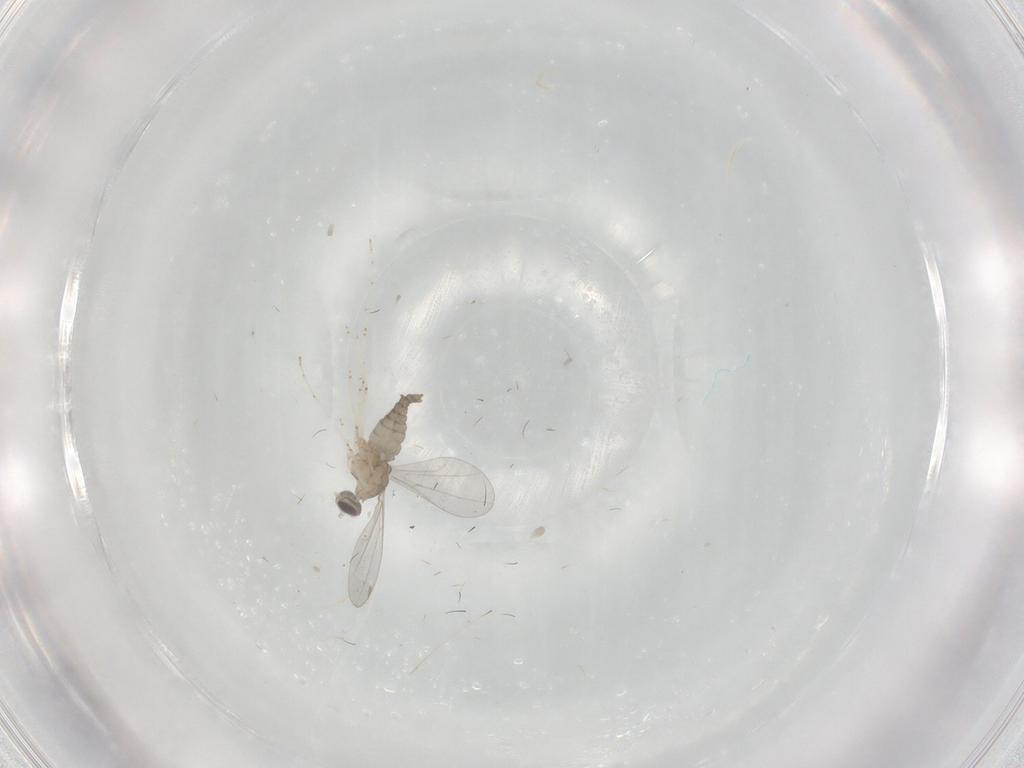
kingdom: Animalia
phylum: Arthropoda
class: Insecta
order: Diptera
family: Cecidomyiidae
